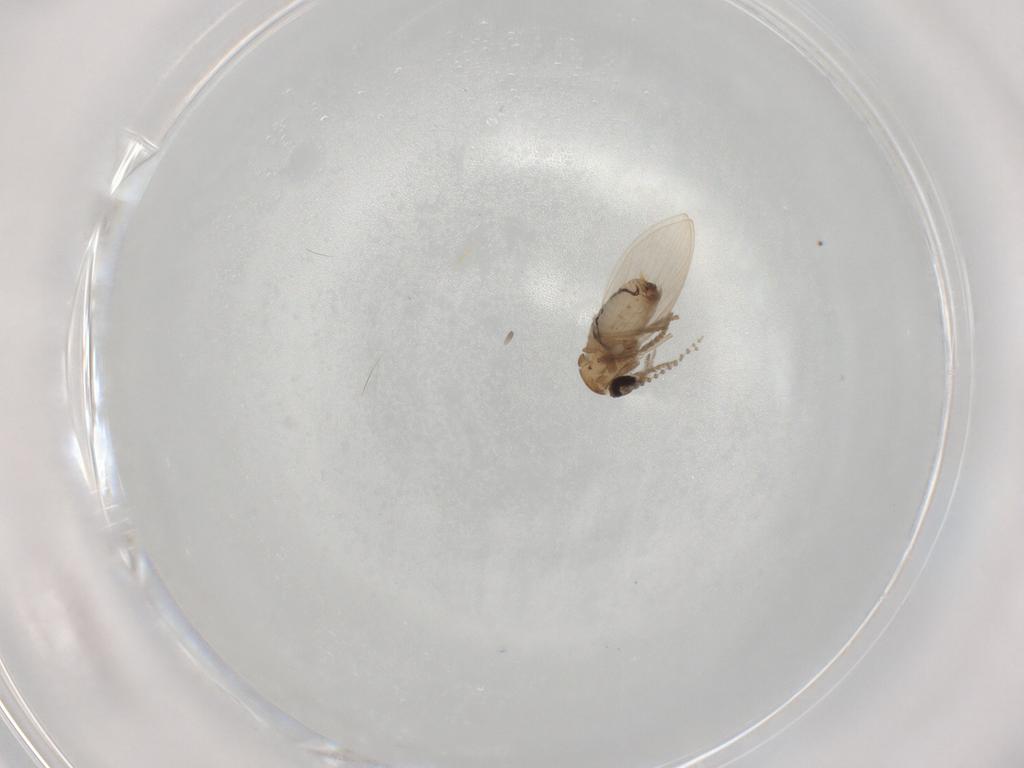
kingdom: Animalia
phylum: Arthropoda
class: Insecta
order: Diptera
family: Psychodidae
